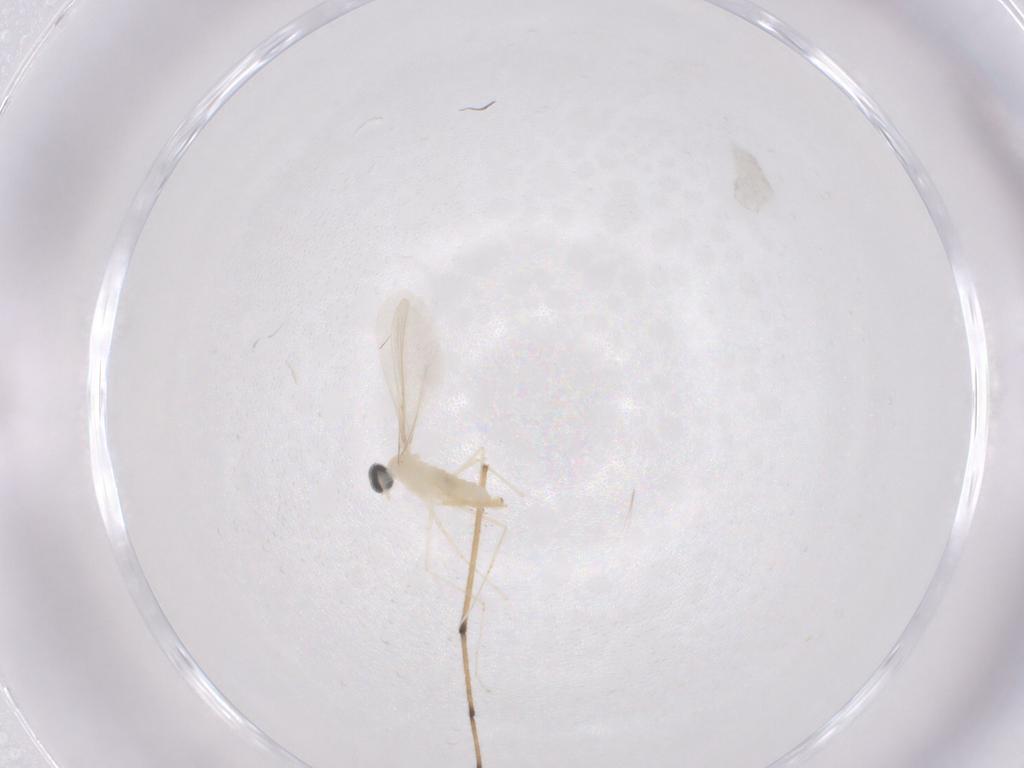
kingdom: Animalia
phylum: Arthropoda
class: Insecta
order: Diptera
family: Cecidomyiidae
